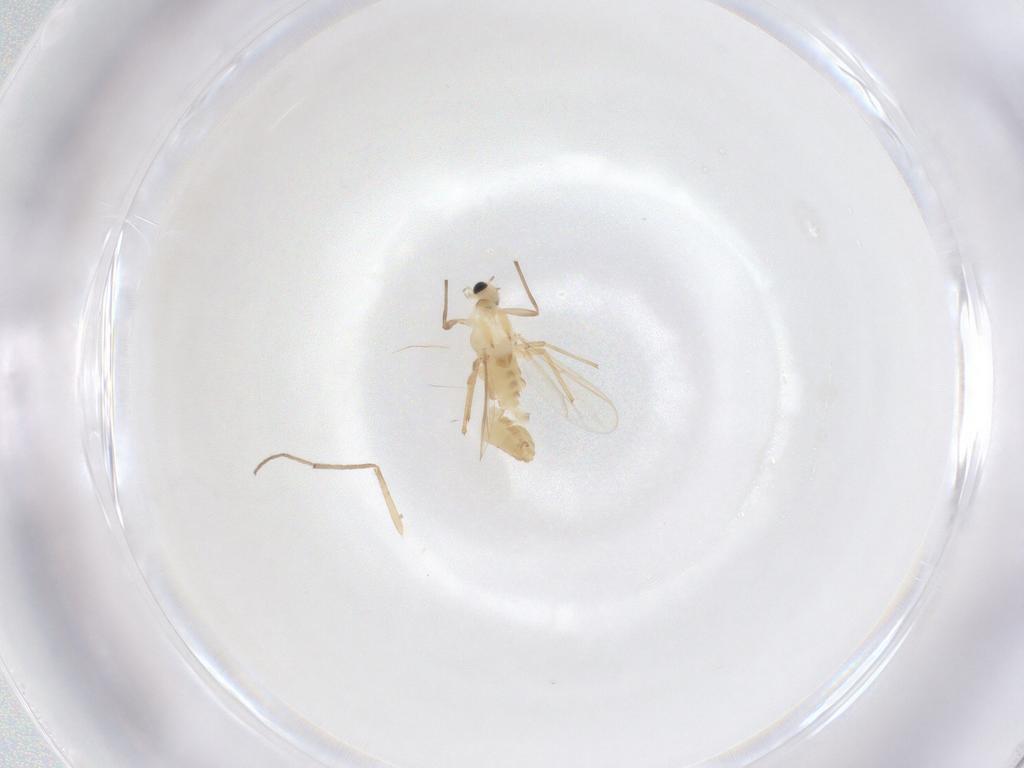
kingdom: Animalia
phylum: Arthropoda
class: Insecta
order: Diptera
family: Chironomidae
